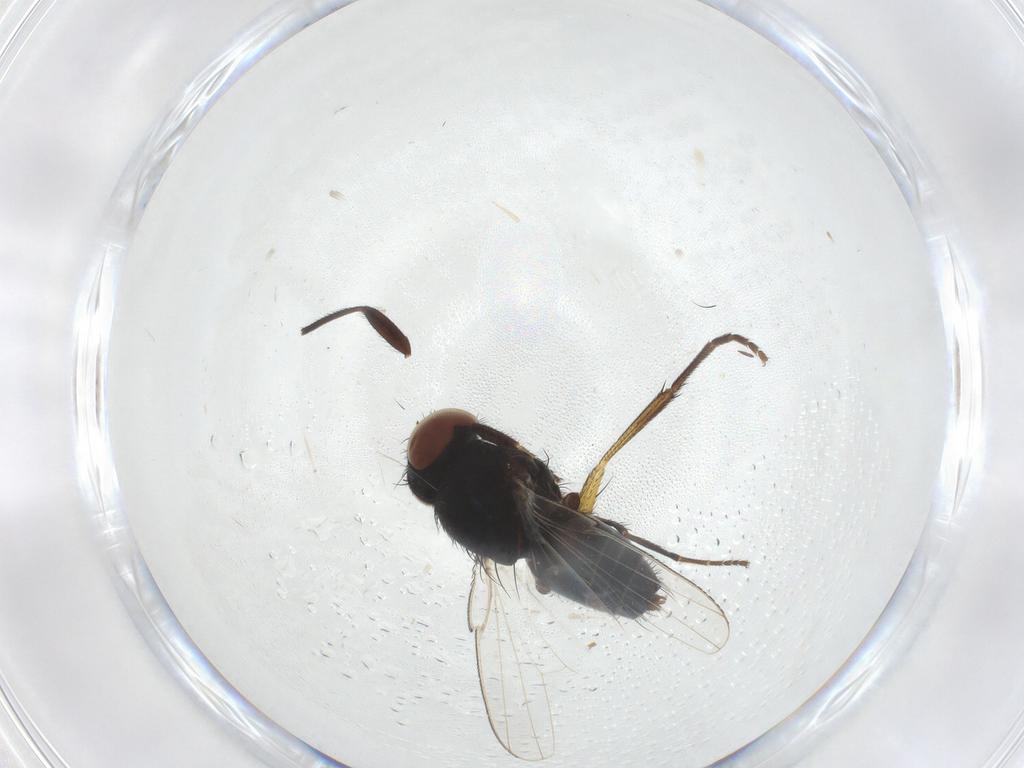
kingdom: Animalia
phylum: Arthropoda
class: Insecta
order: Diptera
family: Milichiidae
